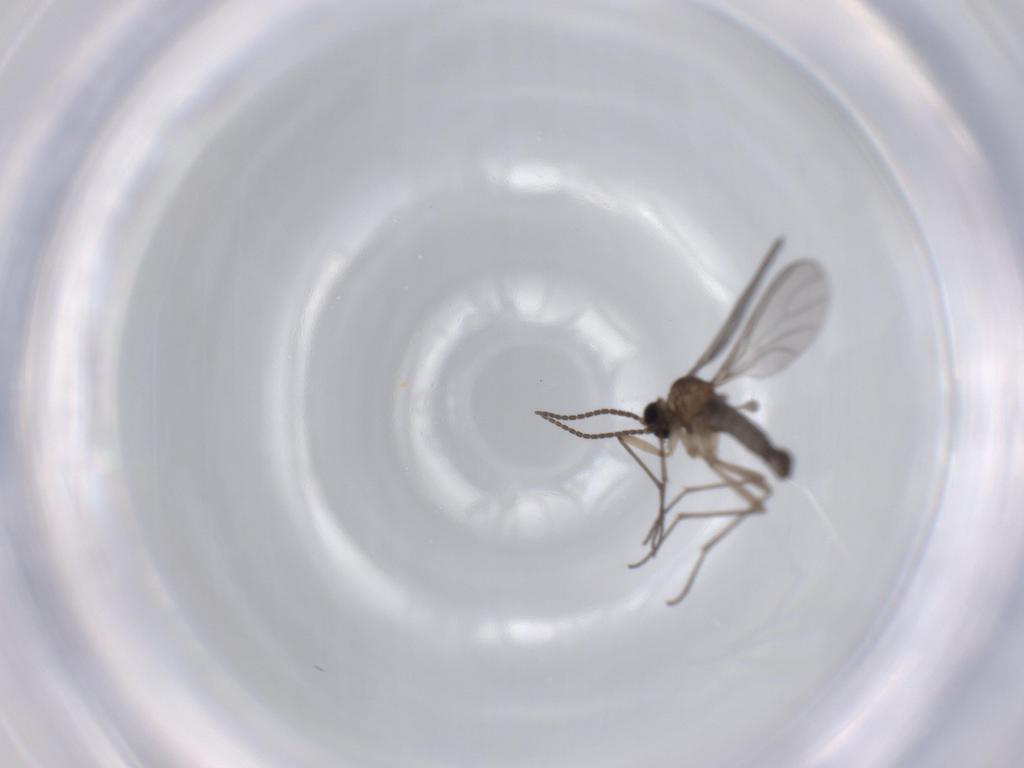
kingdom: Animalia
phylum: Arthropoda
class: Insecta
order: Diptera
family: Sciaridae
